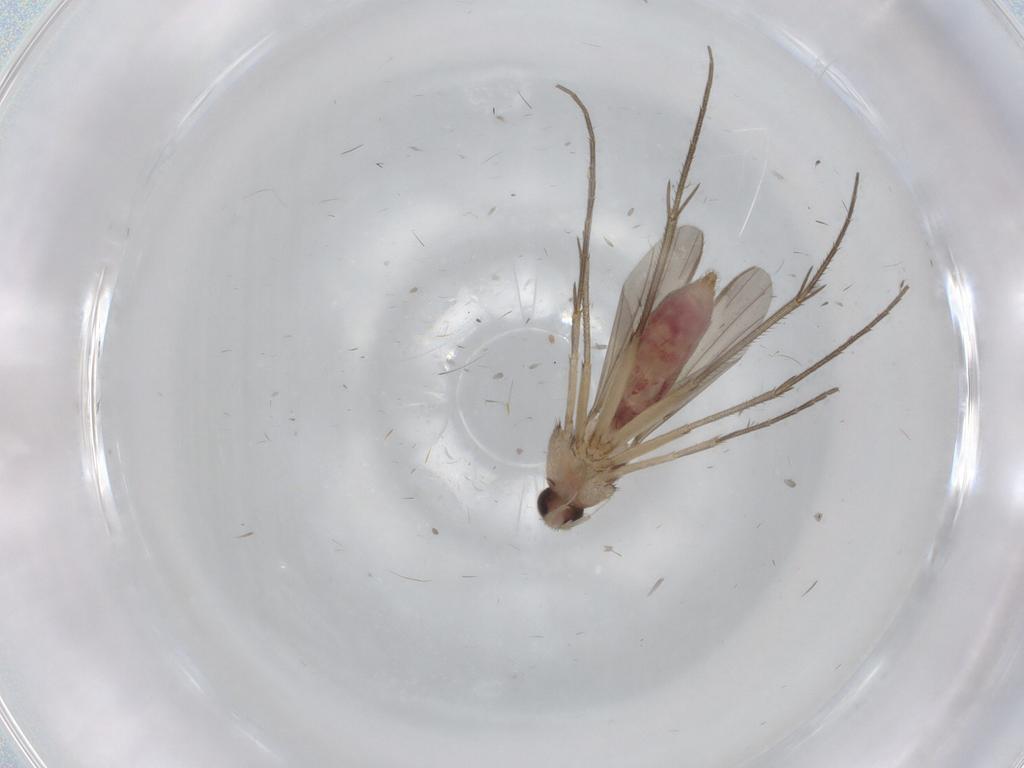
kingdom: Animalia
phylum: Arthropoda
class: Insecta
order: Diptera
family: Mycetophilidae
